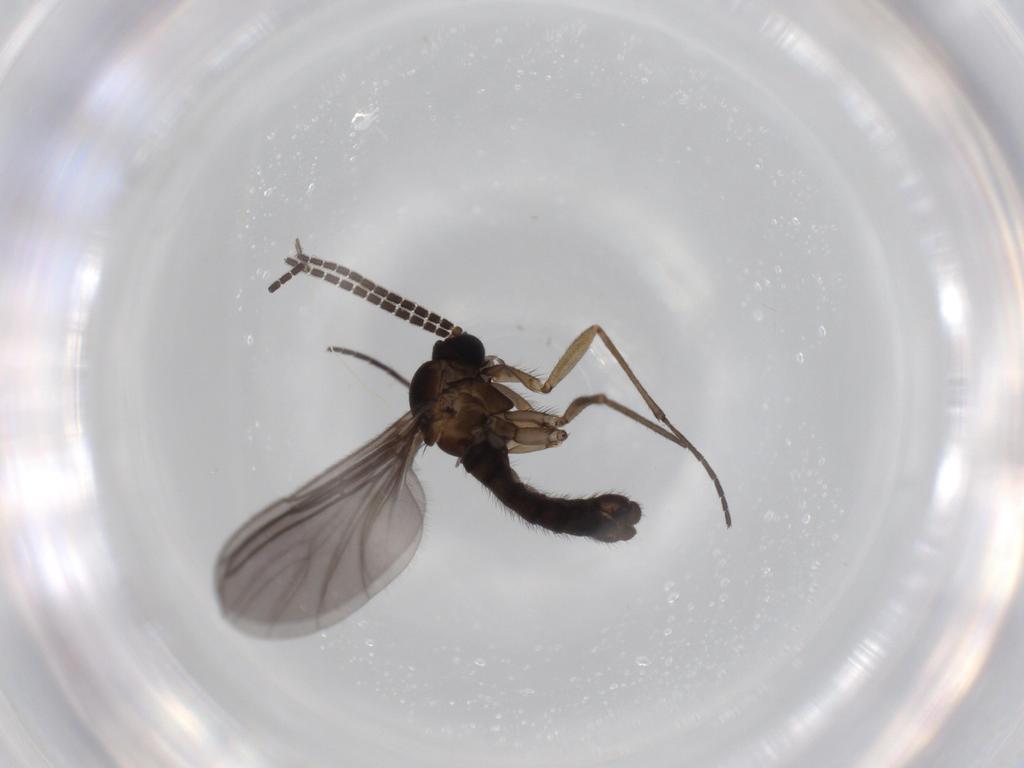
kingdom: Animalia
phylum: Arthropoda
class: Insecta
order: Diptera
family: Sciaridae
